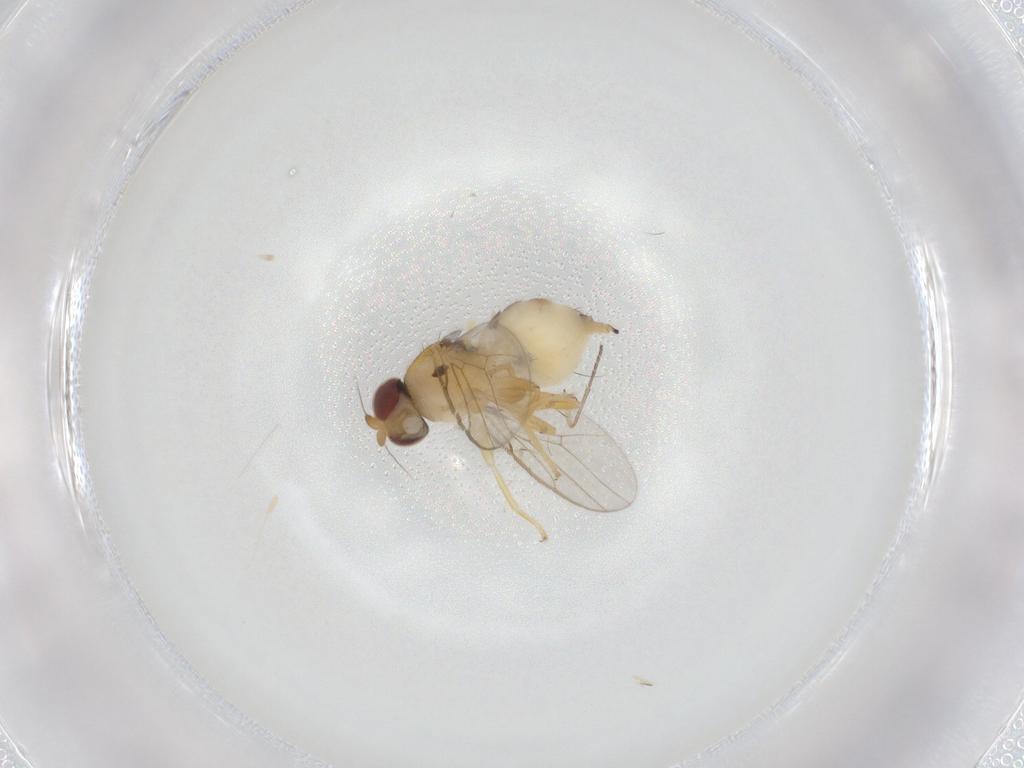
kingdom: Animalia
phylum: Arthropoda
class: Insecta
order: Diptera
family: Chloropidae
